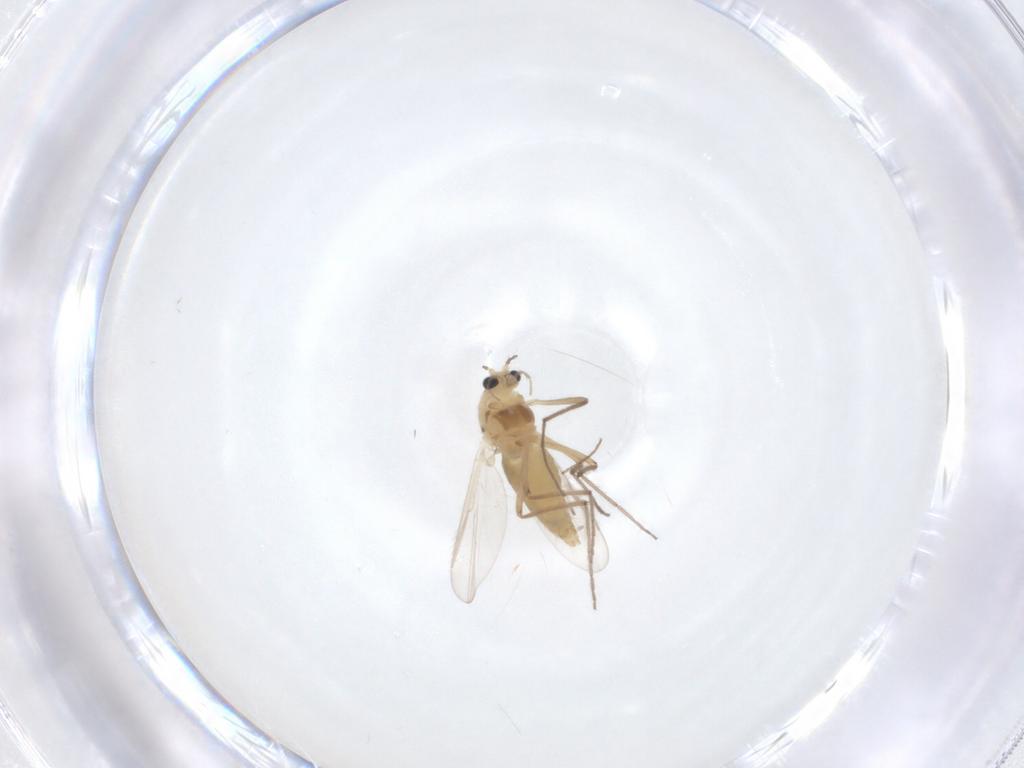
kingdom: Animalia
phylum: Arthropoda
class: Insecta
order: Diptera
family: Chironomidae
